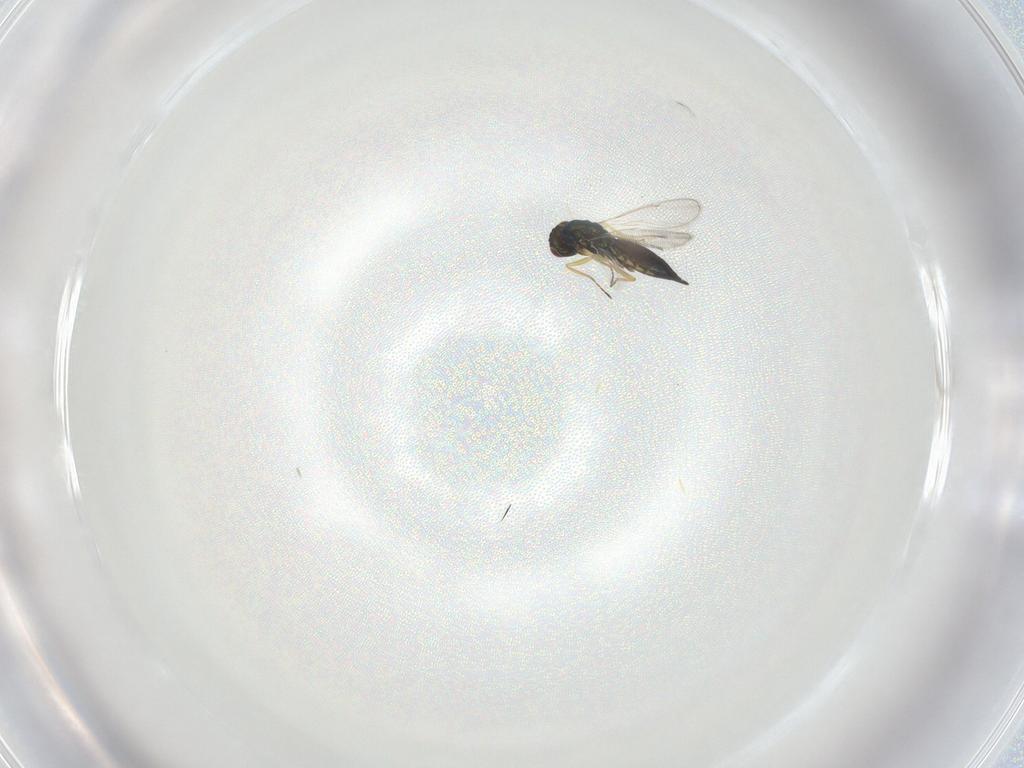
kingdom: Animalia
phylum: Arthropoda
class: Insecta
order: Hymenoptera
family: Eulophidae
